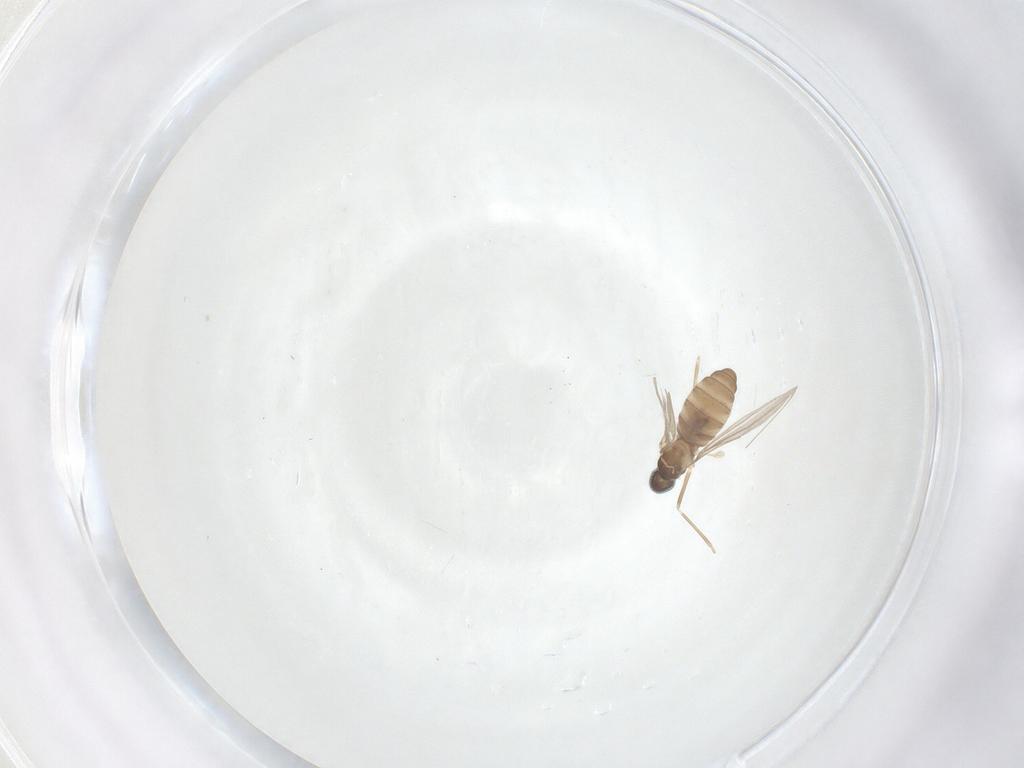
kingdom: Animalia
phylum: Arthropoda
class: Insecta
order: Diptera
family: Cecidomyiidae
